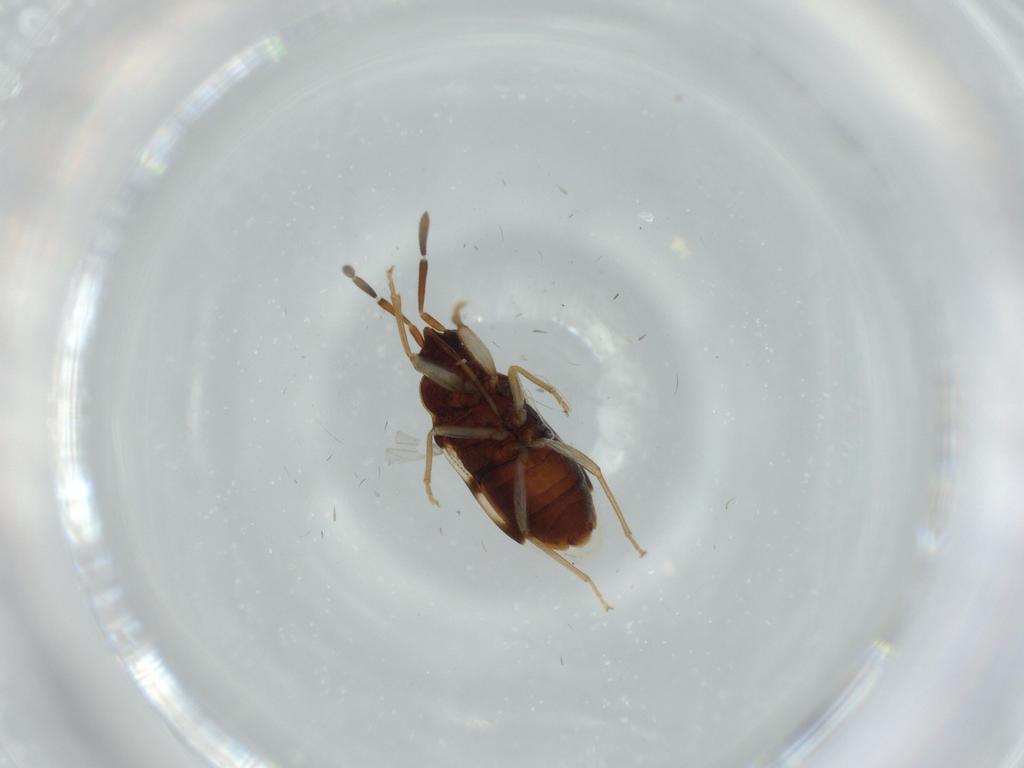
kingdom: Animalia
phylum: Arthropoda
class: Insecta
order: Hemiptera
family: Rhyparochromidae
